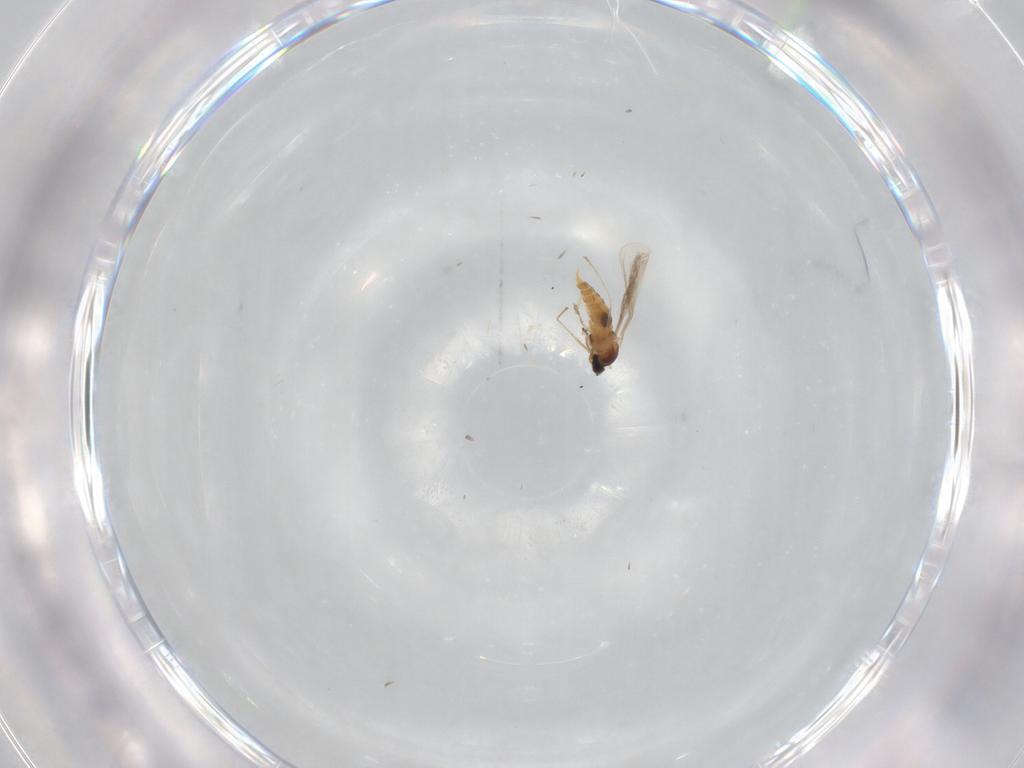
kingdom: Animalia
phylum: Arthropoda
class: Insecta
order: Diptera
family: Cecidomyiidae
